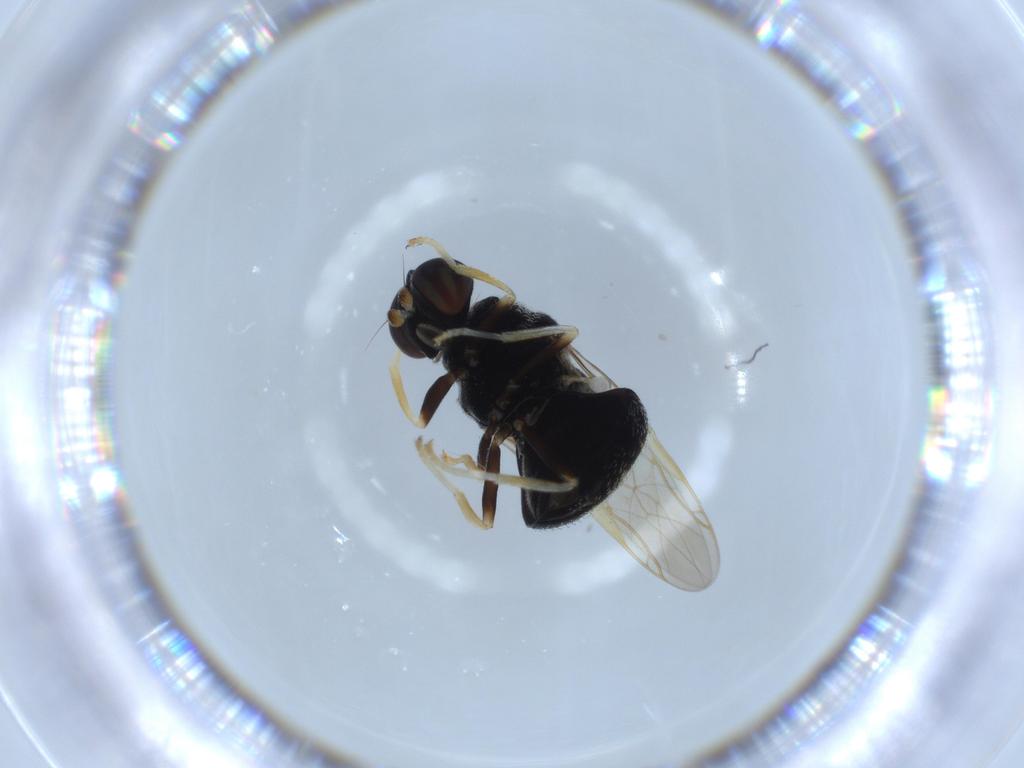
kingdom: Animalia
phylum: Arthropoda
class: Insecta
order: Diptera
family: Stratiomyidae
